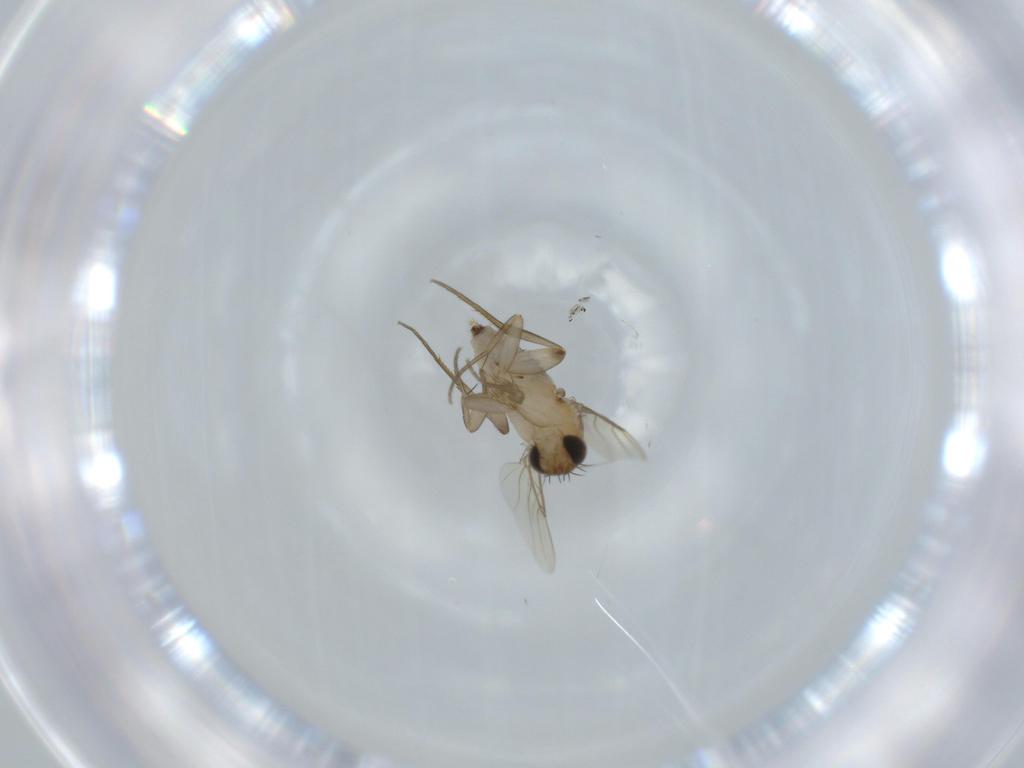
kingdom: Animalia
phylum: Arthropoda
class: Insecta
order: Diptera
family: Phoridae
